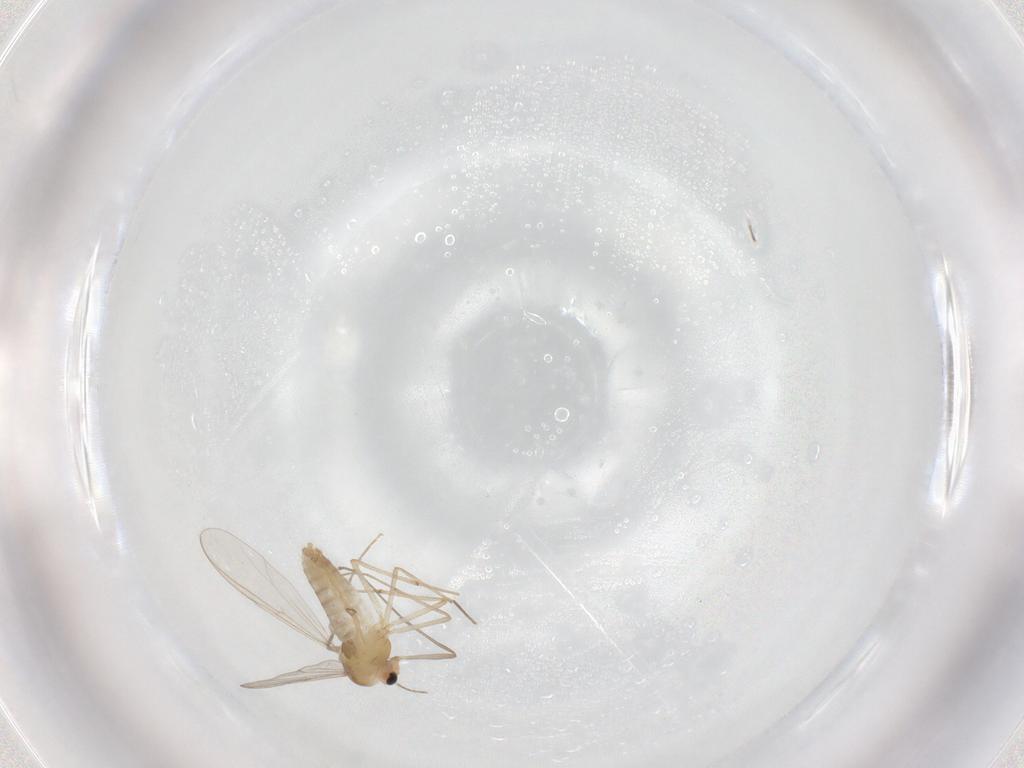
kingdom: Animalia
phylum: Arthropoda
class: Insecta
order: Diptera
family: Chironomidae
